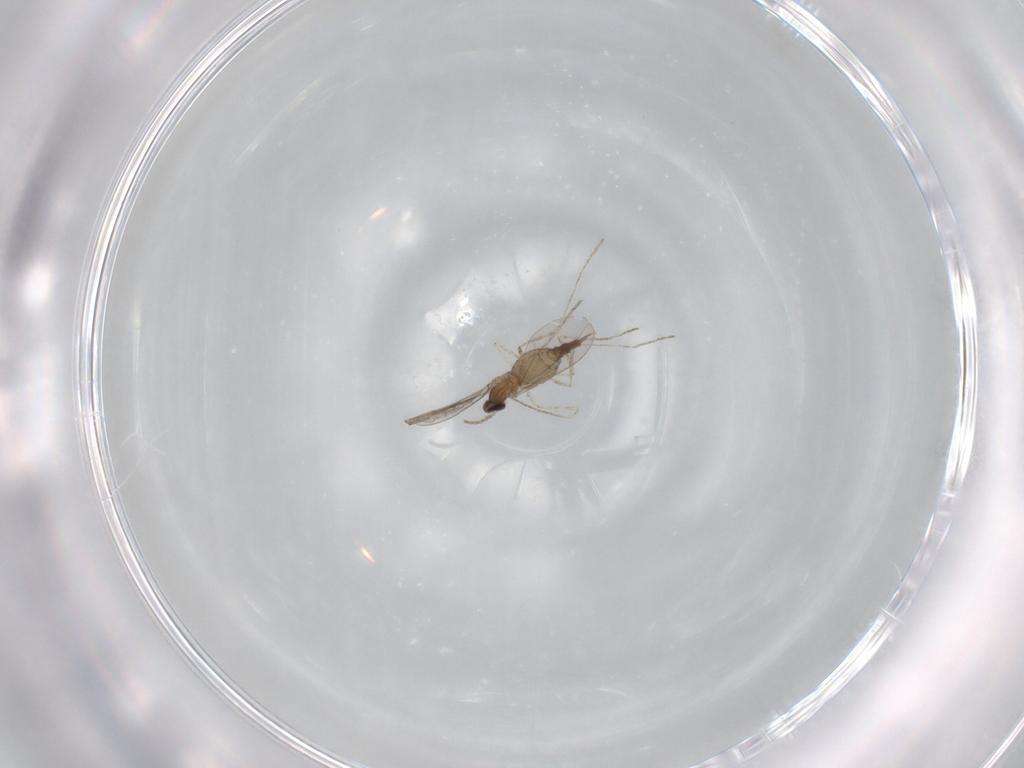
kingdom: Animalia
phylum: Arthropoda
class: Insecta
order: Diptera
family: Cecidomyiidae
